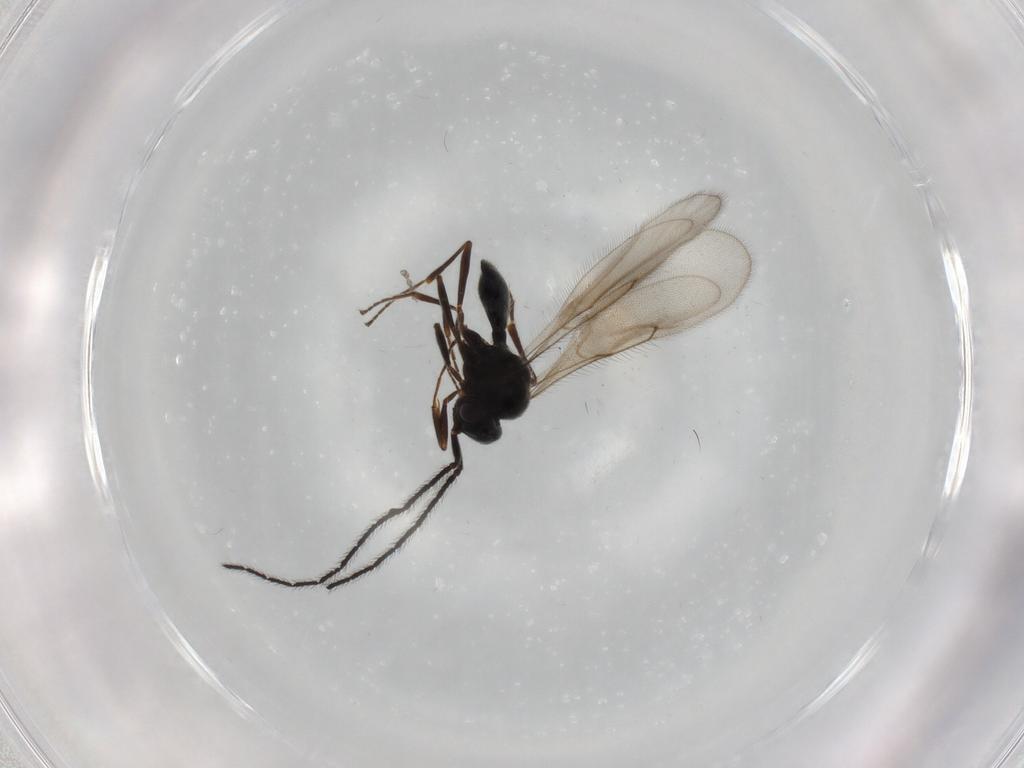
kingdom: Animalia
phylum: Arthropoda
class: Insecta
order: Hymenoptera
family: Scelionidae
